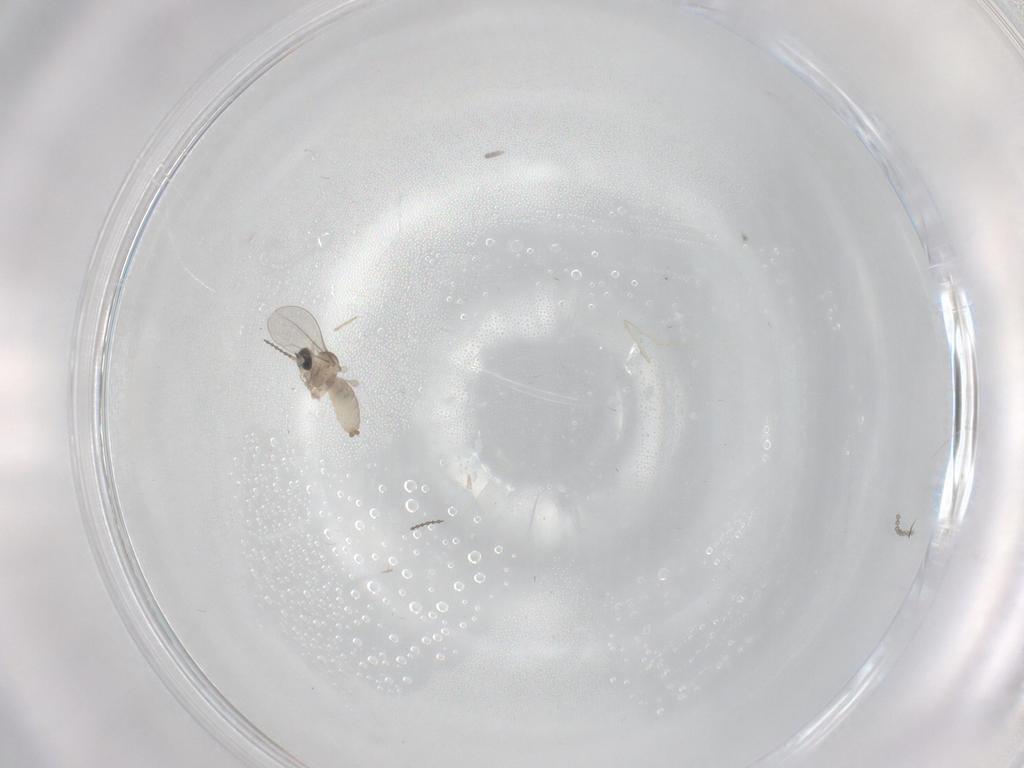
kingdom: Animalia
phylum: Arthropoda
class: Insecta
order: Diptera
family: Cecidomyiidae
